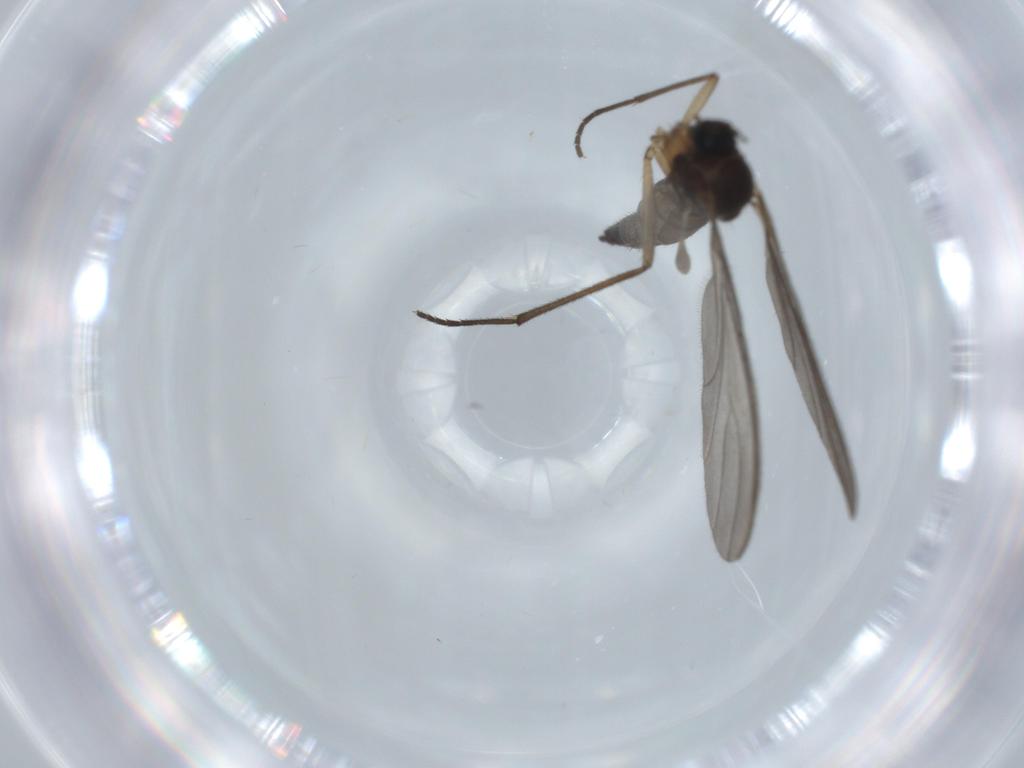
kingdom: Animalia
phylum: Arthropoda
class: Insecta
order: Diptera
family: Sciaridae
